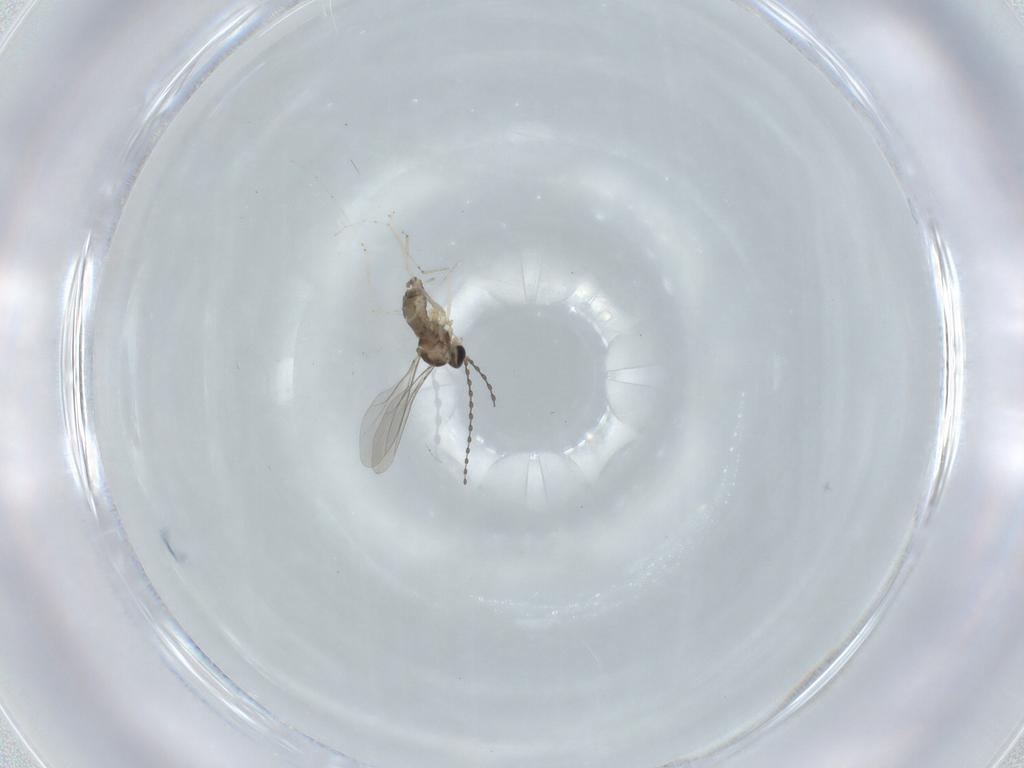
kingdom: Animalia
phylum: Arthropoda
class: Insecta
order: Diptera
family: Cecidomyiidae
